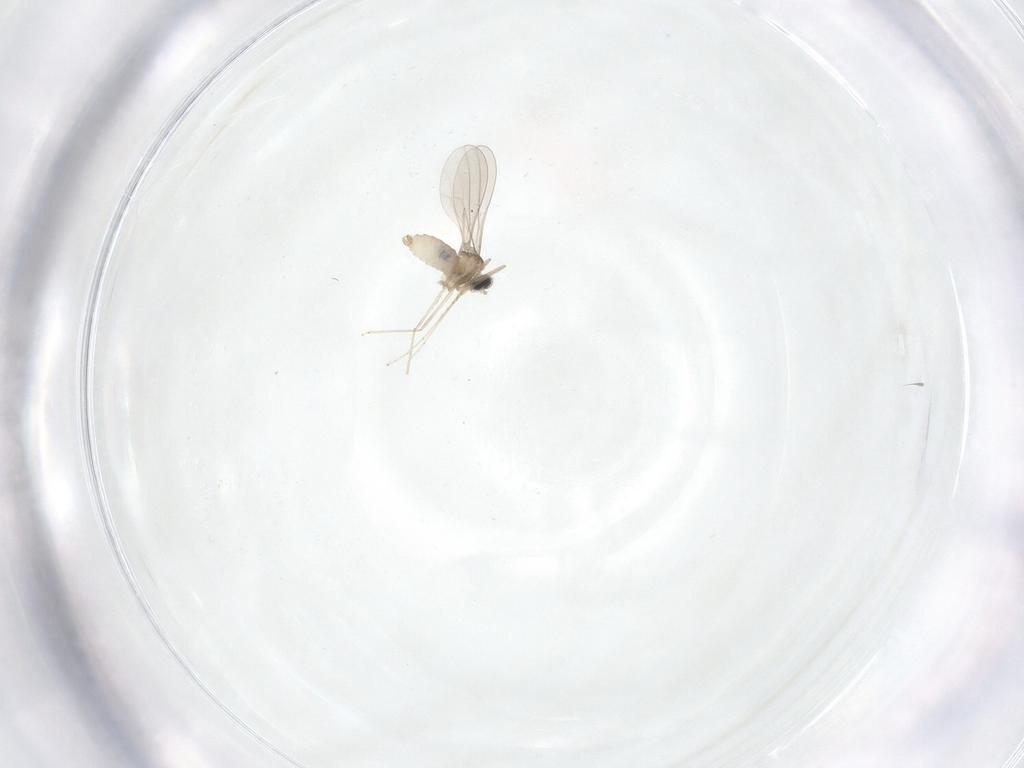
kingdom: Animalia
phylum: Arthropoda
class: Insecta
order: Diptera
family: Cecidomyiidae
